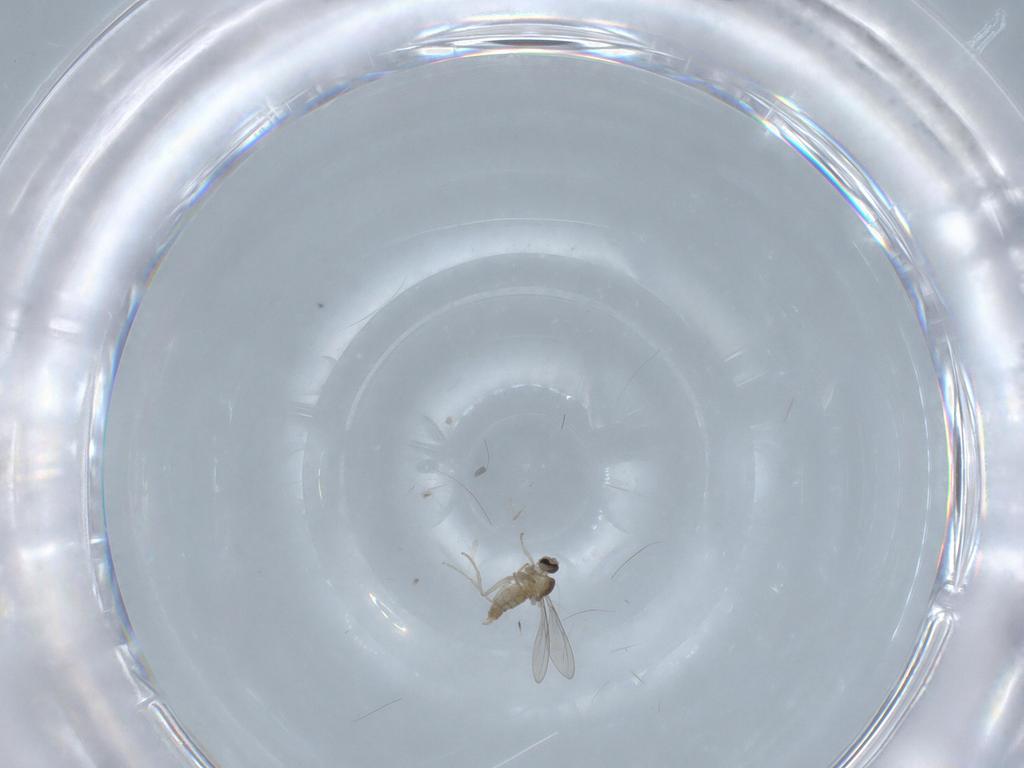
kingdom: Animalia
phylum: Arthropoda
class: Insecta
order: Diptera
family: Cecidomyiidae
